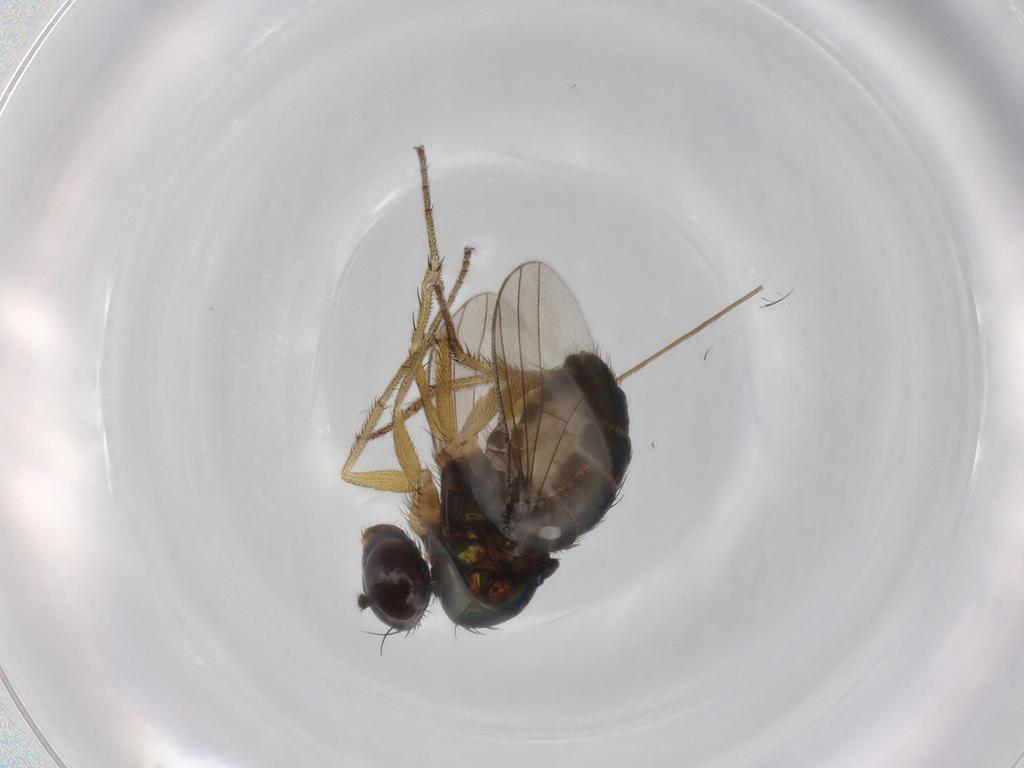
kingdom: Animalia
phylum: Arthropoda
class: Insecta
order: Diptera
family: Dolichopodidae
